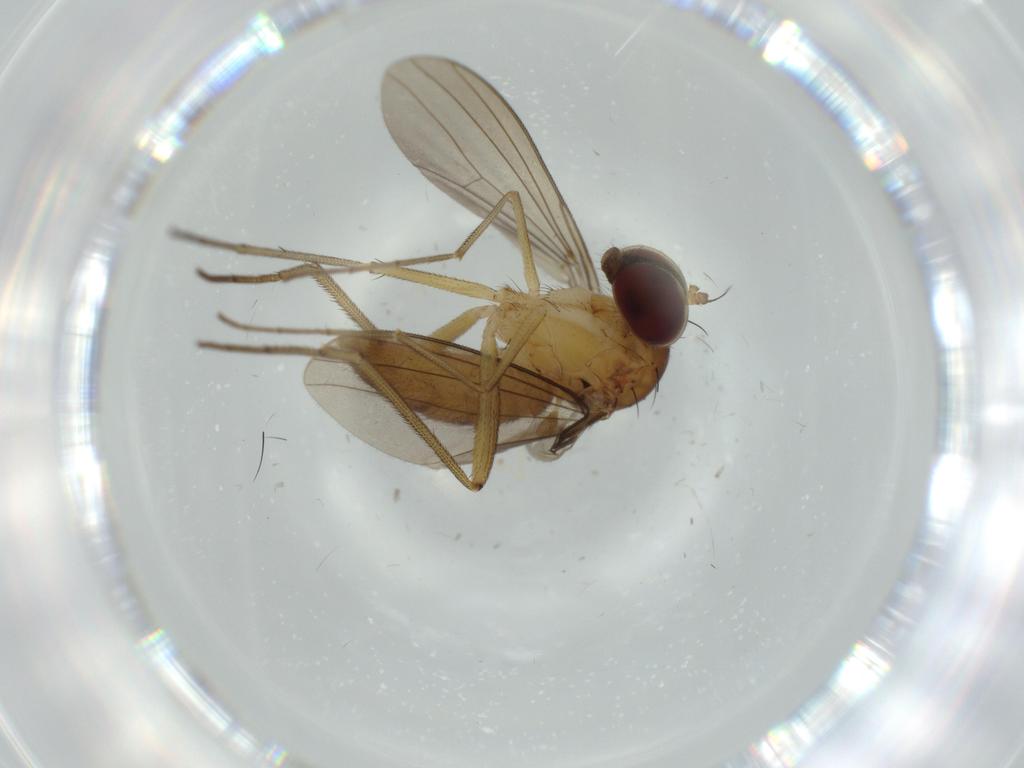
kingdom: Animalia
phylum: Arthropoda
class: Insecta
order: Diptera
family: Dolichopodidae
